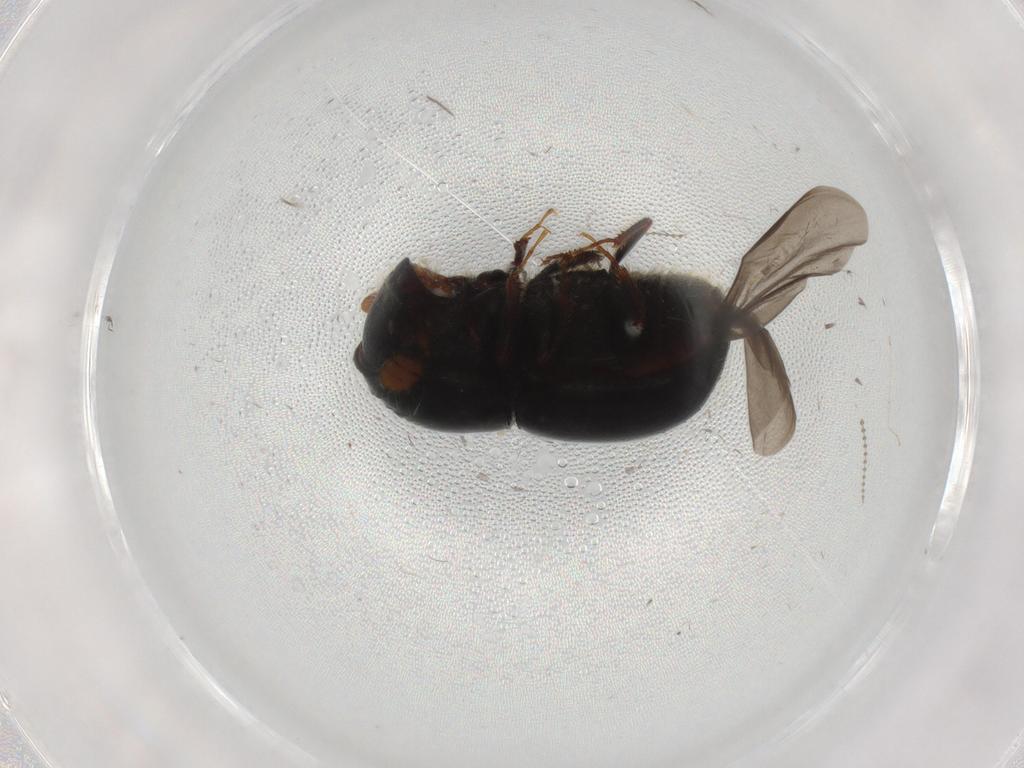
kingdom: Animalia
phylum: Arthropoda
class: Insecta
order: Coleoptera
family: Curculionidae
